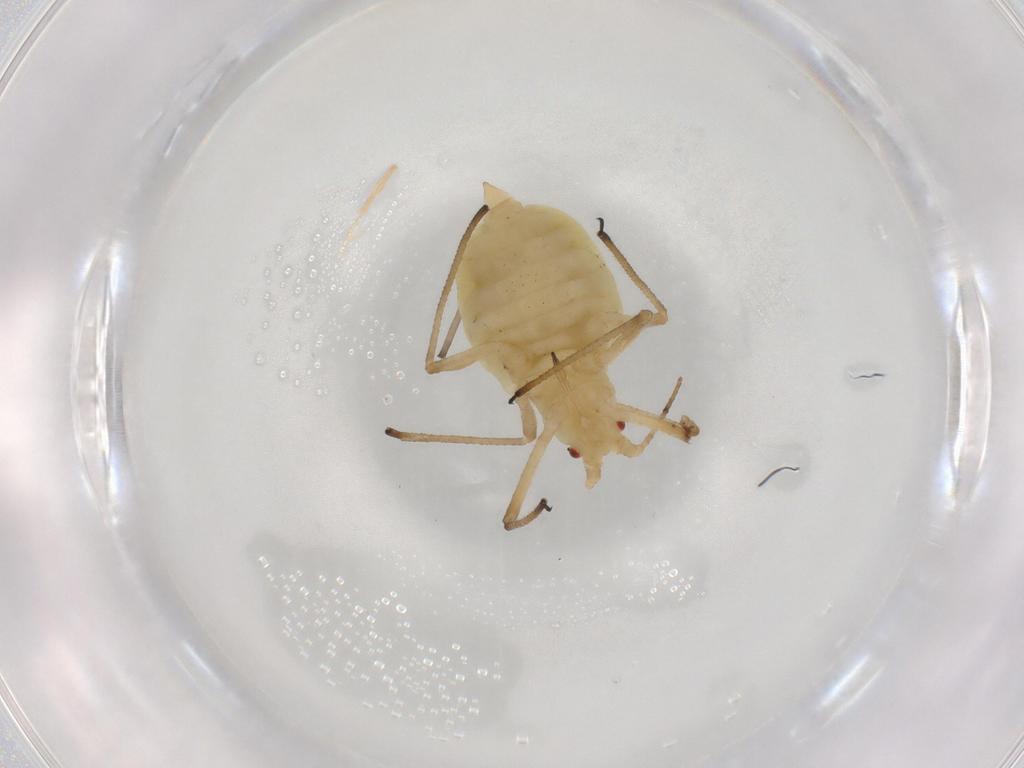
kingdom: Animalia
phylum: Arthropoda
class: Insecta
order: Hemiptera
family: Aphididae
